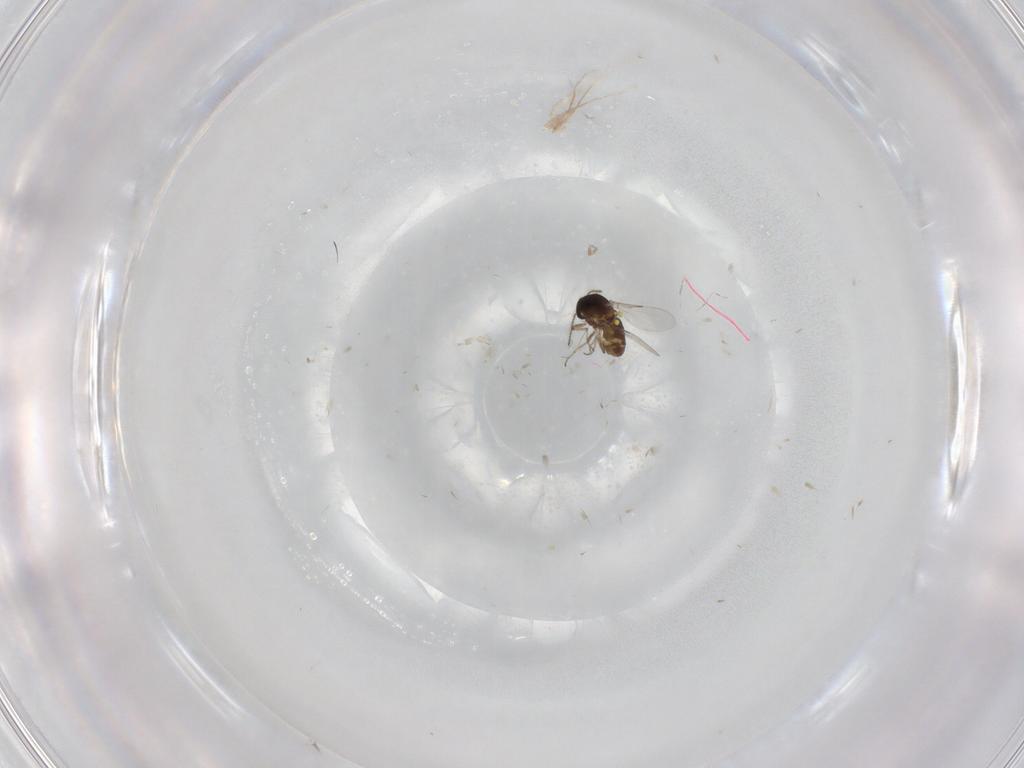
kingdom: Animalia
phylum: Arthropoda
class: Insecta
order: Diptera
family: Ceratopogonidae
